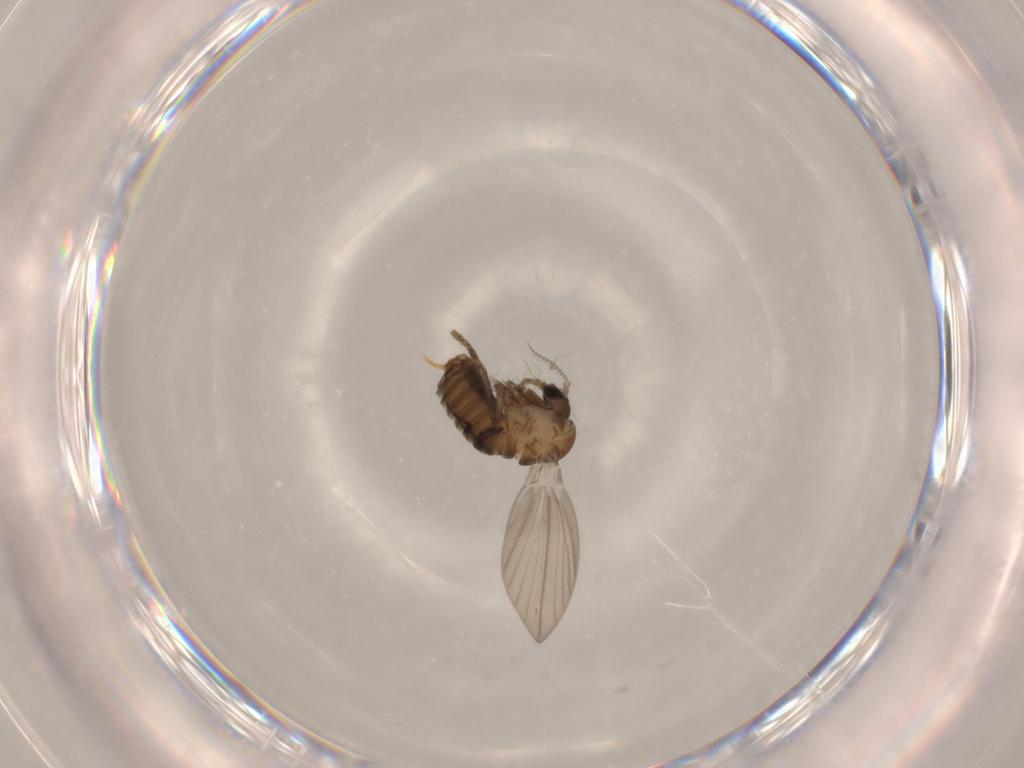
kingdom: Animalia
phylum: Arthropoda
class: Insecta
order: Diptera
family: Psychodidae
